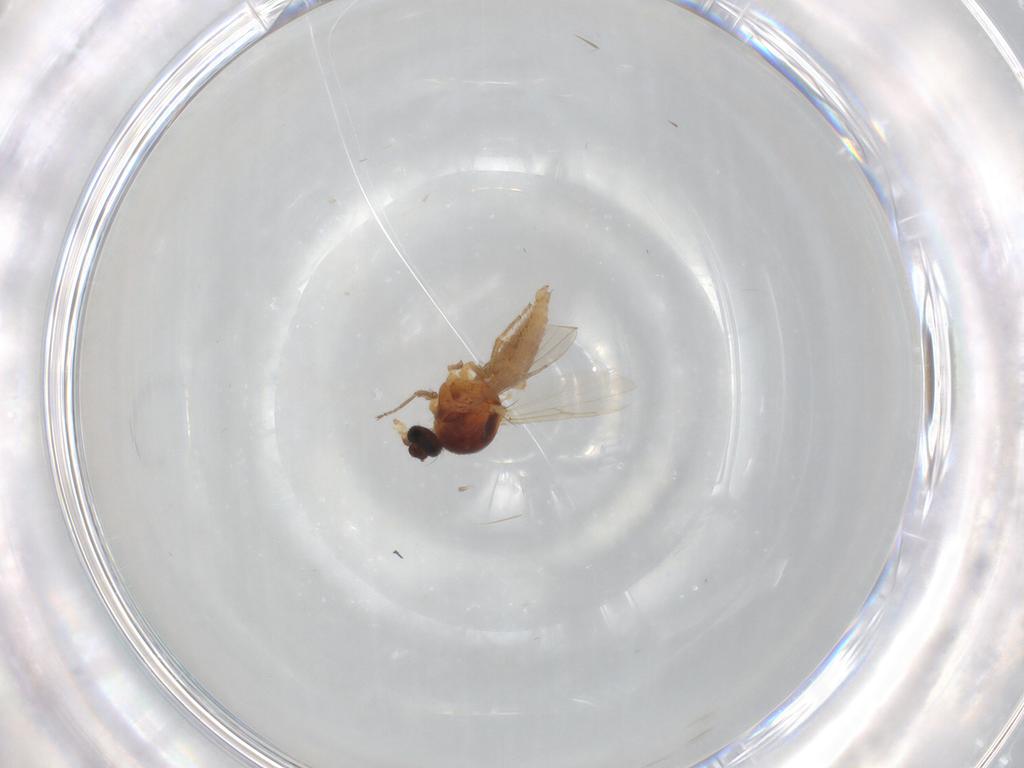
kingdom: Animalia
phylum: Arthropoda
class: Insecta
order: Diptera
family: Ceratopogonidae
